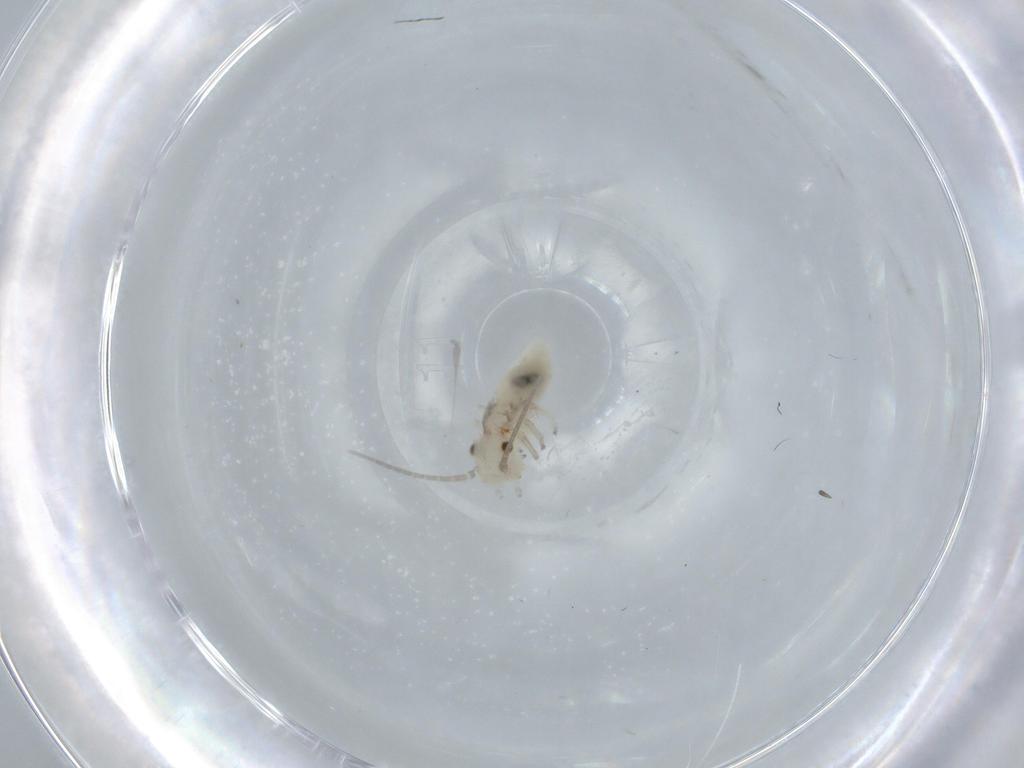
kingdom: Animalia
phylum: Arthropoda
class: Insecta
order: Psocodea
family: Caeciliusidae
